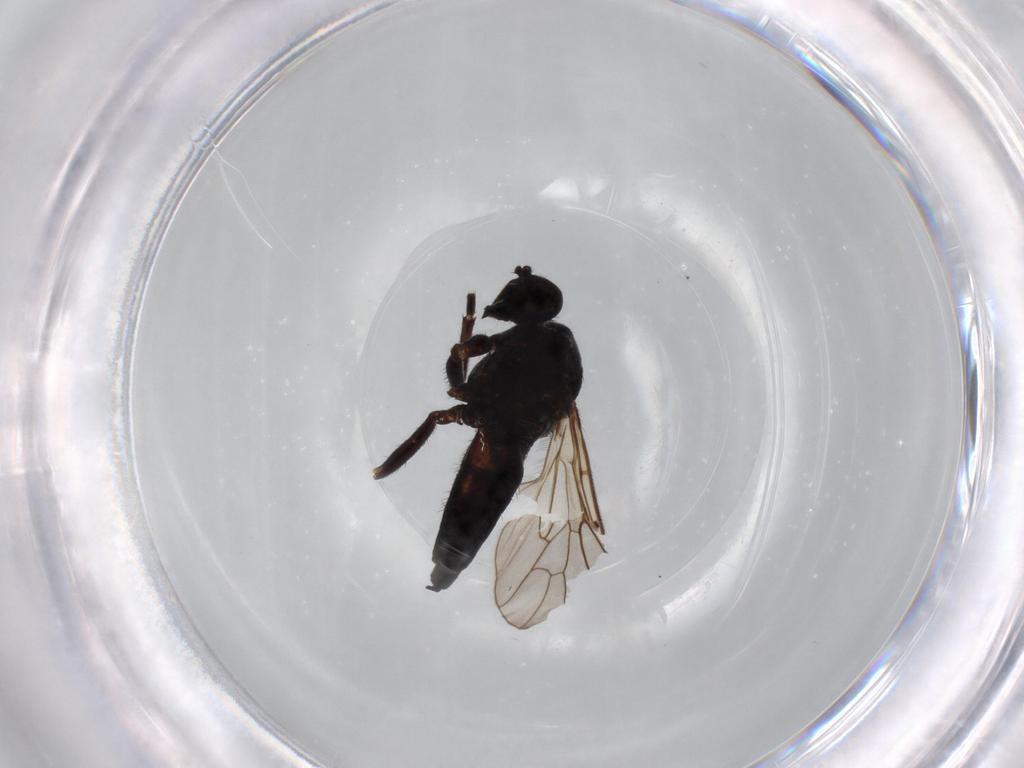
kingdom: Animalia
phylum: Arthropoda
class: Insecta
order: Diptera
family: Empididae
